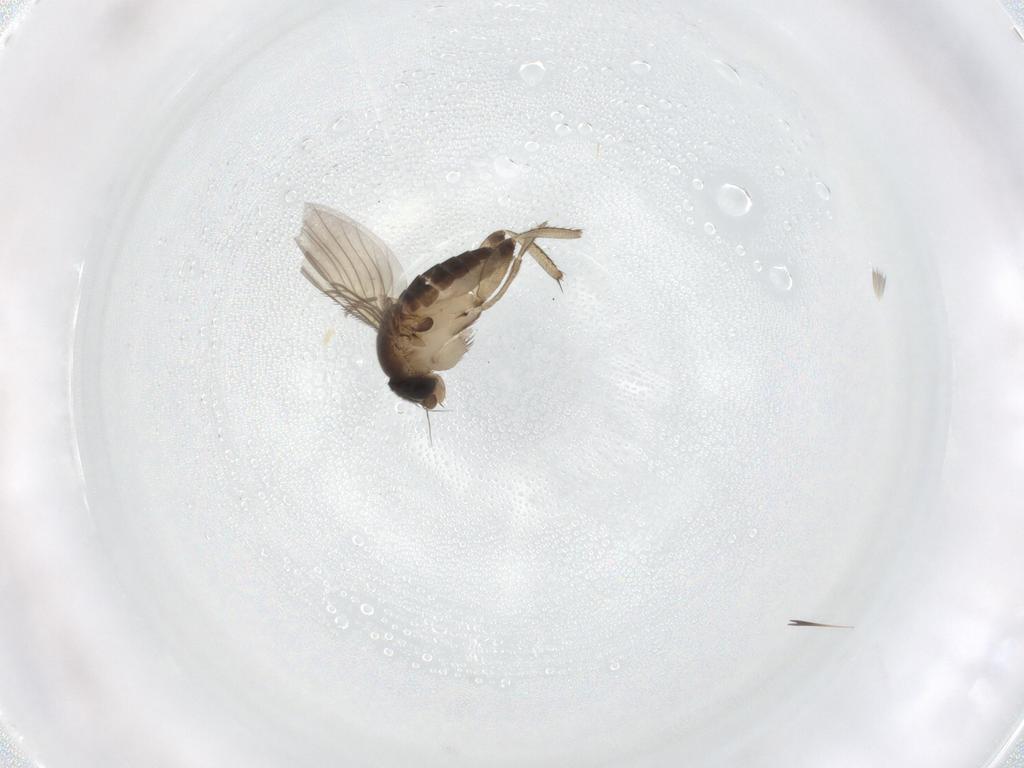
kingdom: Animalia
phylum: Arthropoda
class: Insecta
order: Diptera
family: Phoridae
